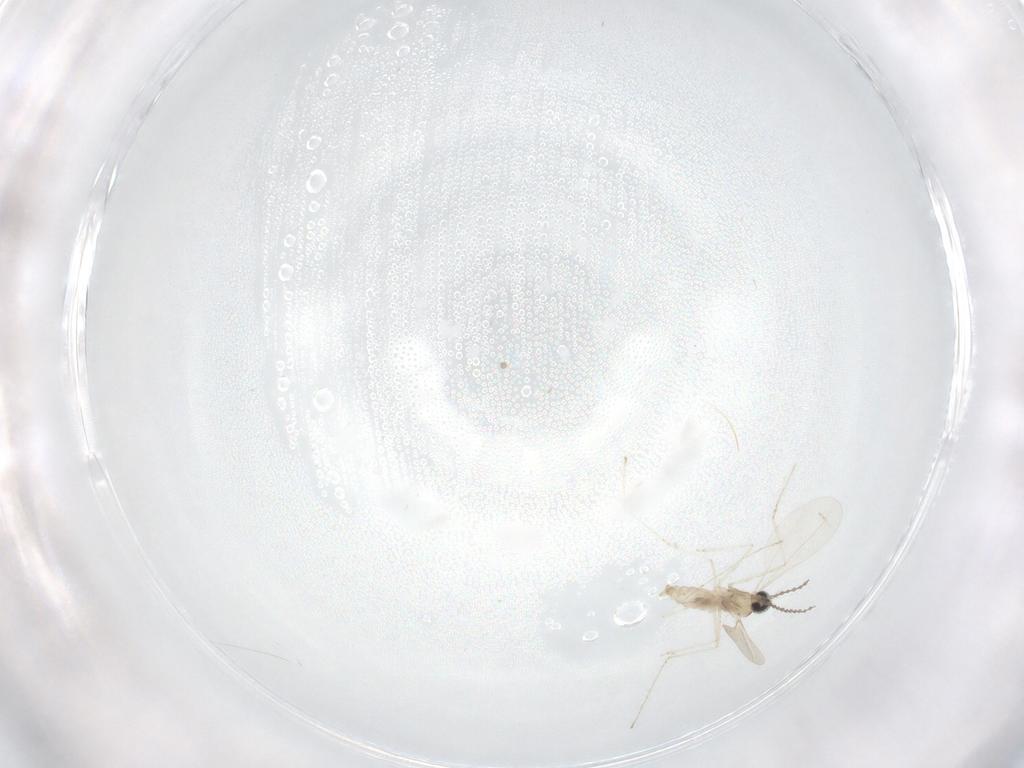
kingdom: Animalia
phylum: Arthropoda
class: Insecta
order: Diptera
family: Cecidomyiidae
